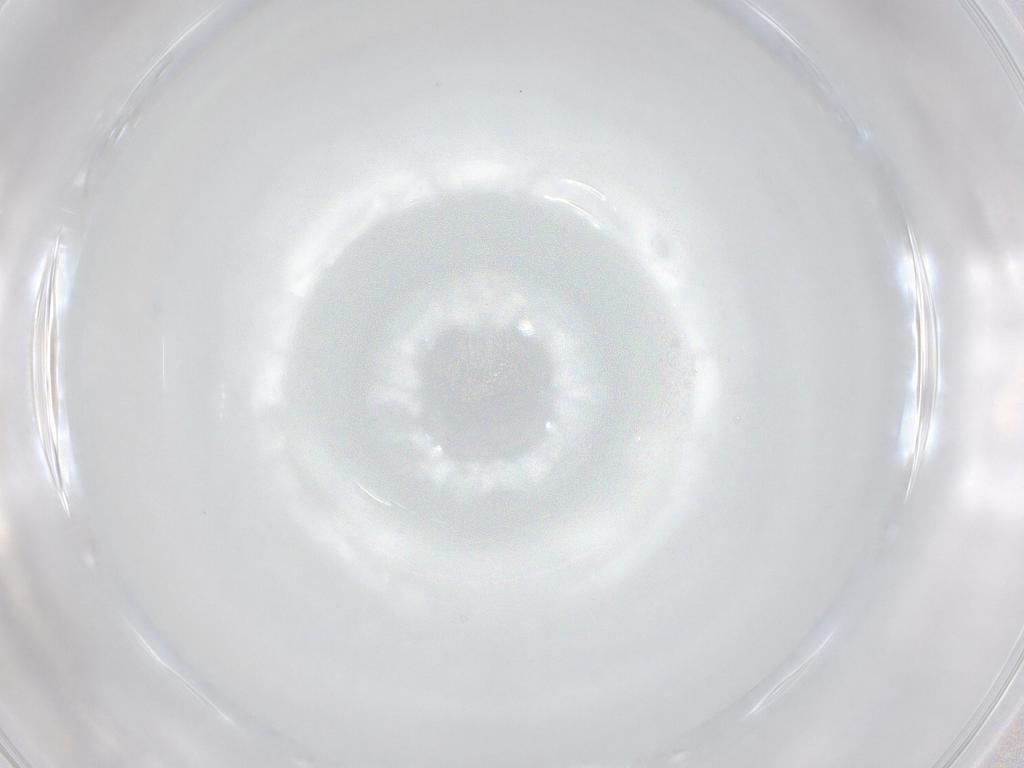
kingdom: Animalia
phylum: Arthropoda
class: Insecta
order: Hymenoptera
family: Mymaridae
